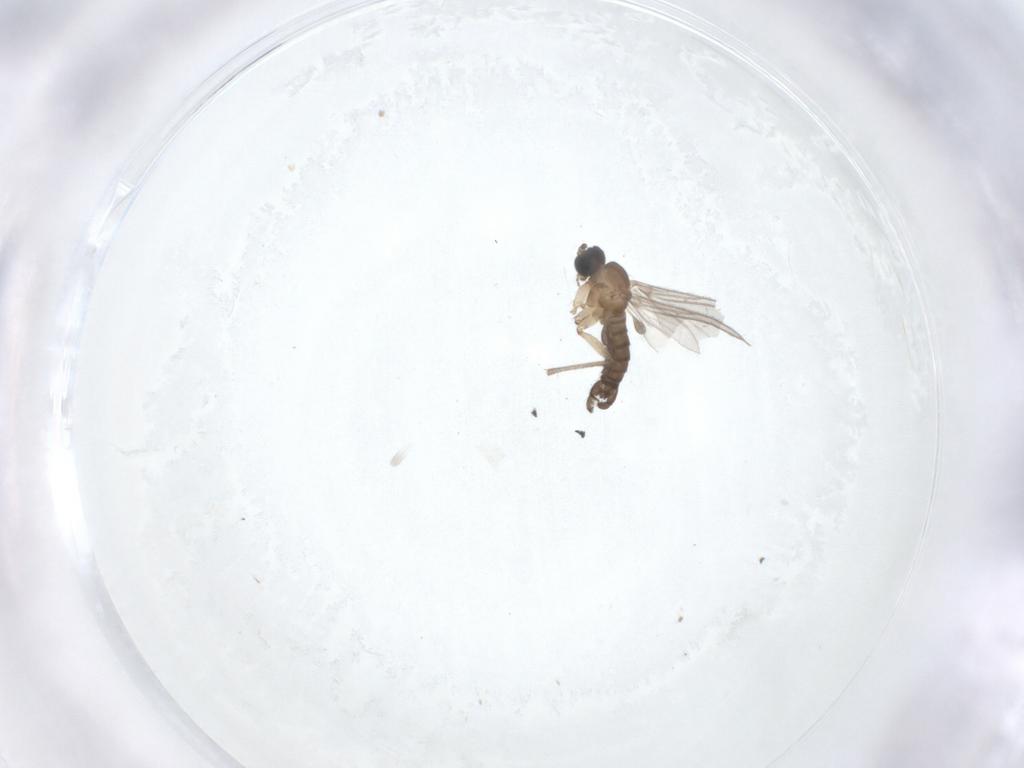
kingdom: Animalia
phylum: Arthropoda
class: Insecta
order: Diptera
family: Sciaridae
